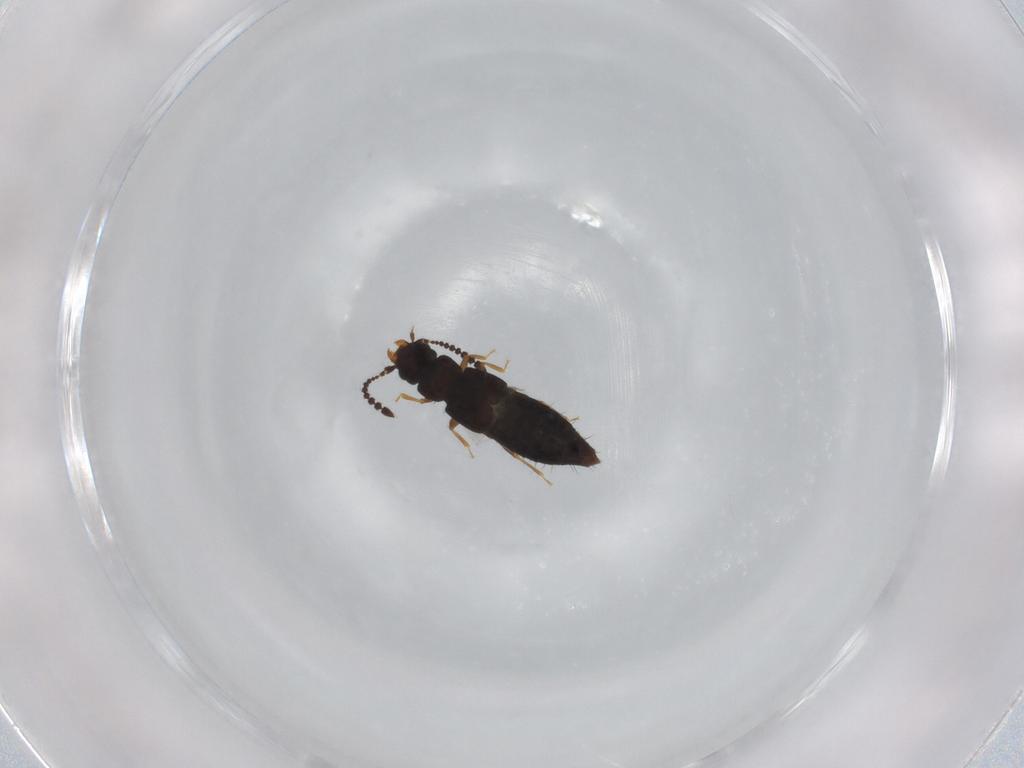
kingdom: Animalia
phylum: Arthropoda
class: Insecta
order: Coleoptera
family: Staphylinidae
